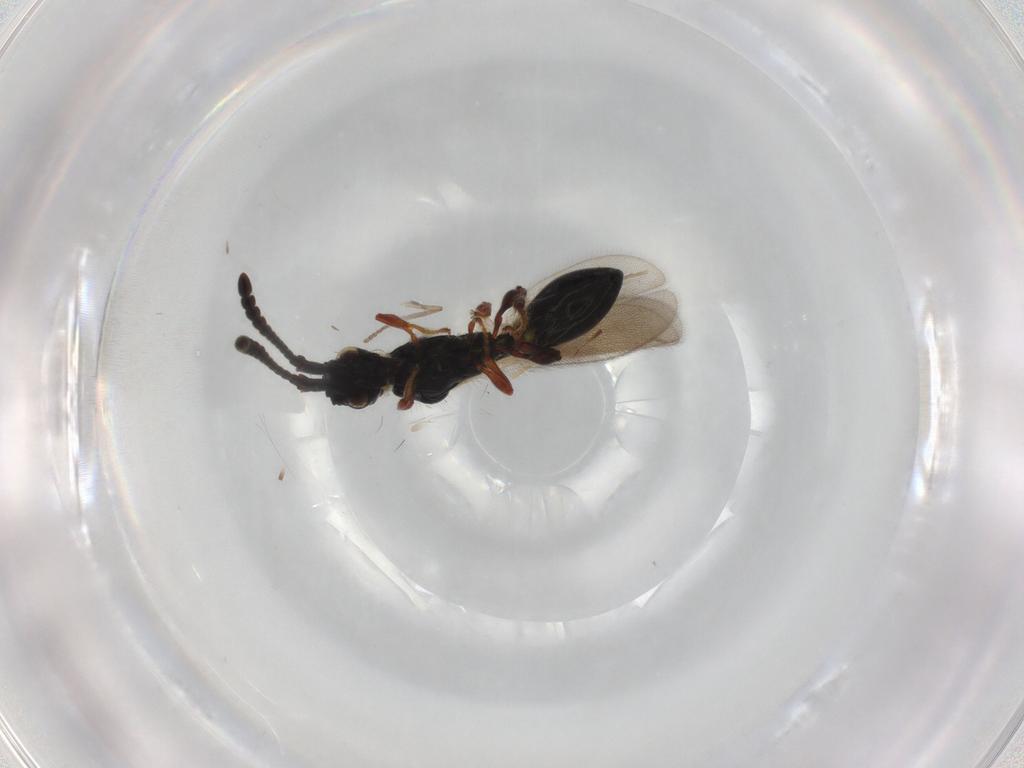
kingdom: Animalia
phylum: Arthropoda
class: Insecta
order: Hymenoptera
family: Diapriidae
